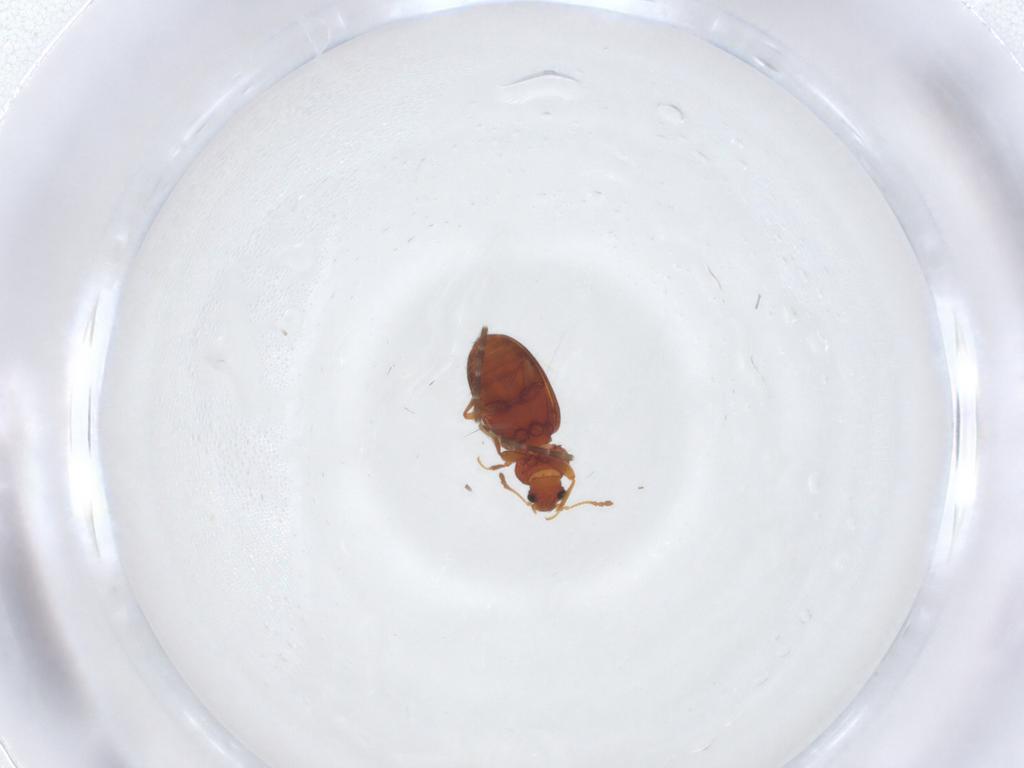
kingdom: Animalia
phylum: Arthropoda
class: Insecta
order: Coleoptera
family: Latridiidae
